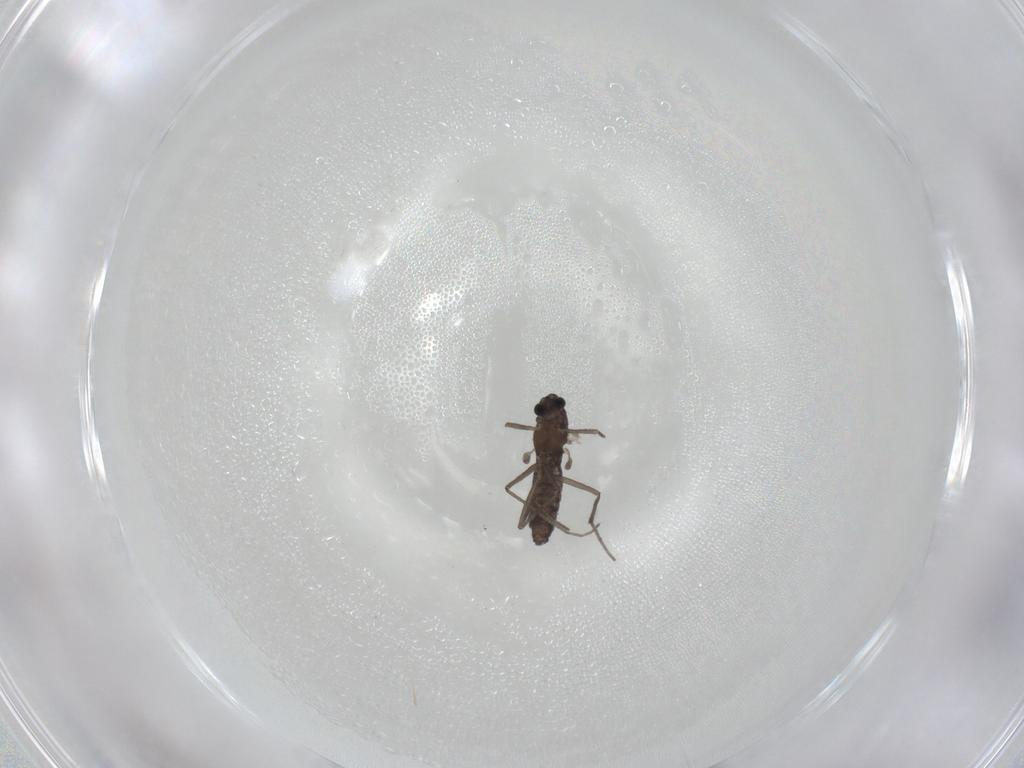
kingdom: Animalia
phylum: Arthropoda
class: Insecta
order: Diptera
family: Chironomidae
